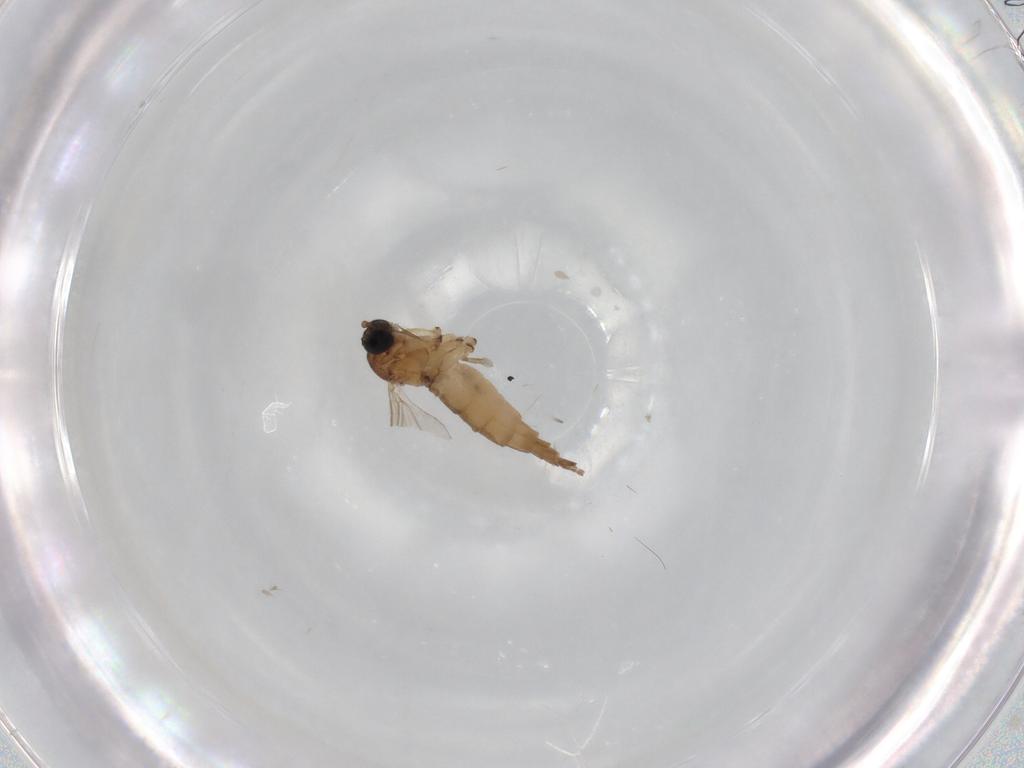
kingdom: Animalia
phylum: Arthropoda
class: Insecta
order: Diptera
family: Sciaridae
